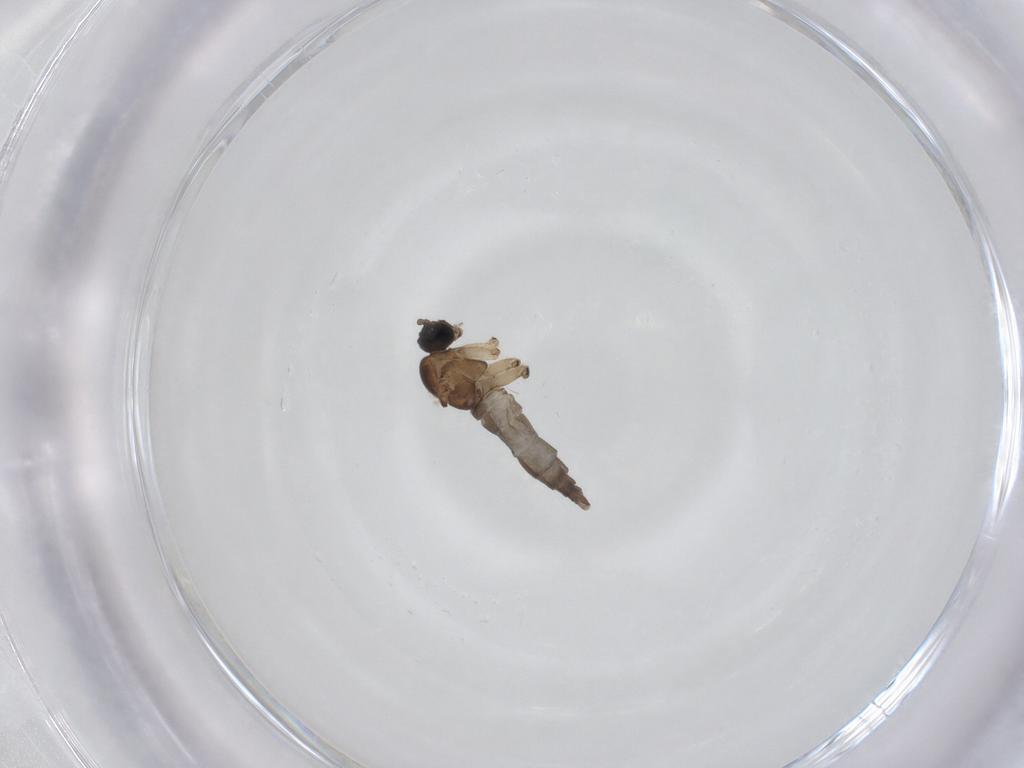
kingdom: Animalia
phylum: Arthropoda
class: Insecta
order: Diptera
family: Sciaridae
